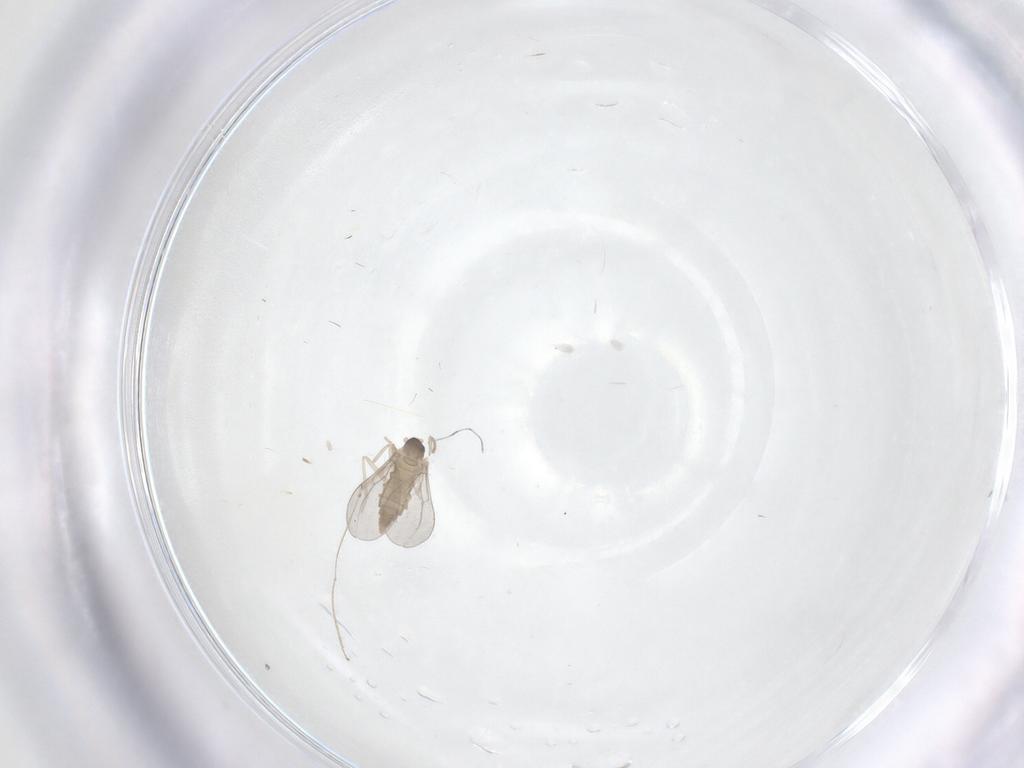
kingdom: Animalia
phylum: Arthropoda
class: Insecta
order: Diptera
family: Cecidomyiidae
